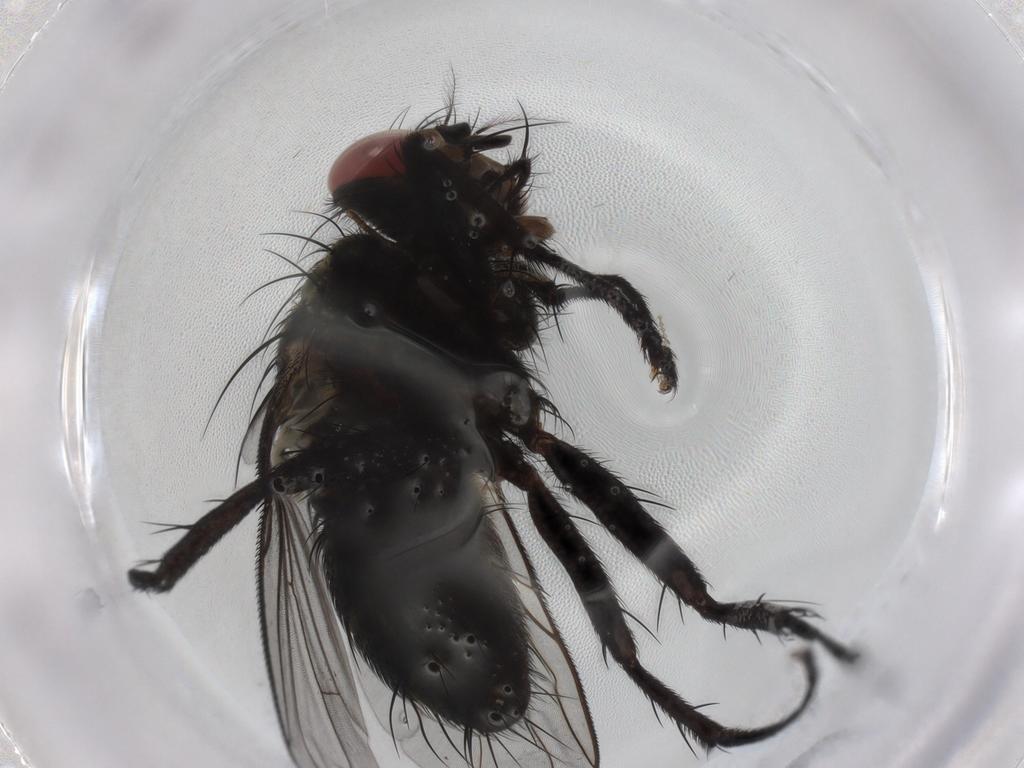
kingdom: Animalia
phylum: Arthropoda
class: Insecta
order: Diptera
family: Sarcophagidae
